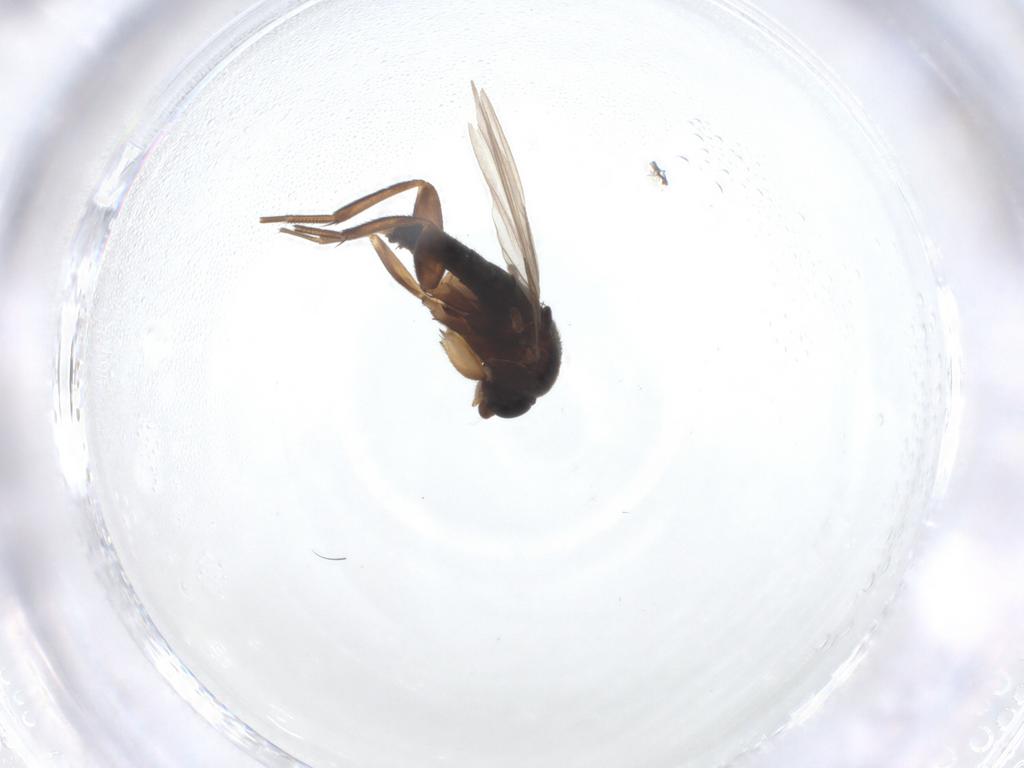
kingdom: Animalia
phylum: Arthropoda
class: Insecta
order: Diptera
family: Phoridae
